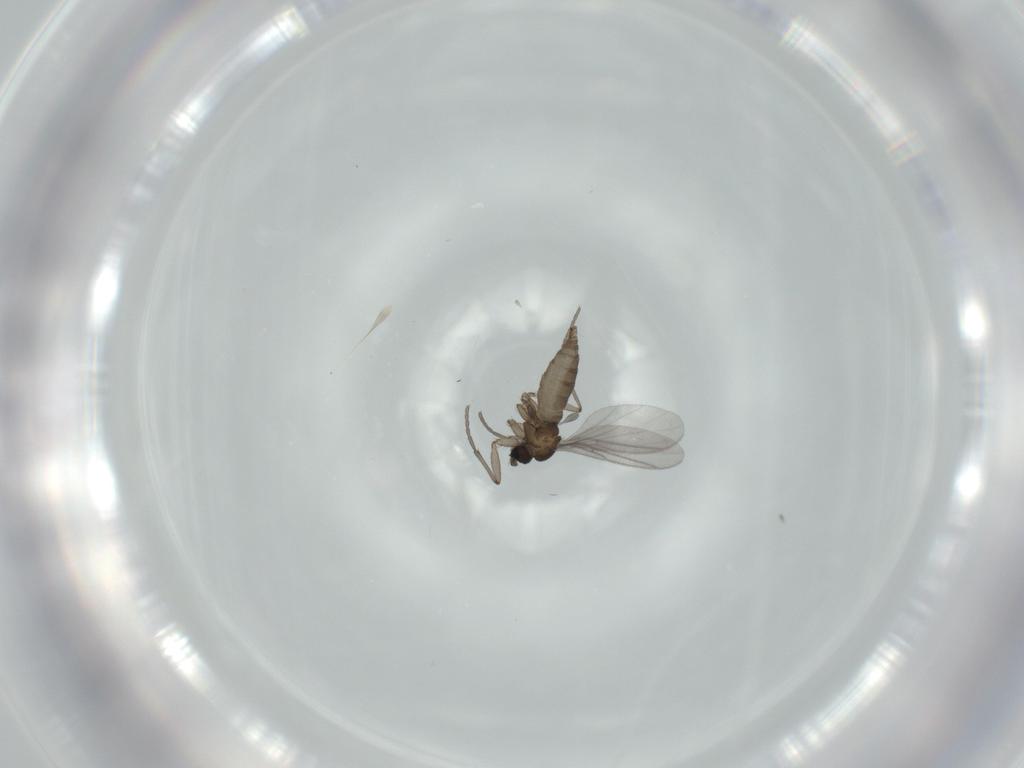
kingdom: Animalia
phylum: Arthropoda
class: Insecta
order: Diptera
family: Sciaridae
